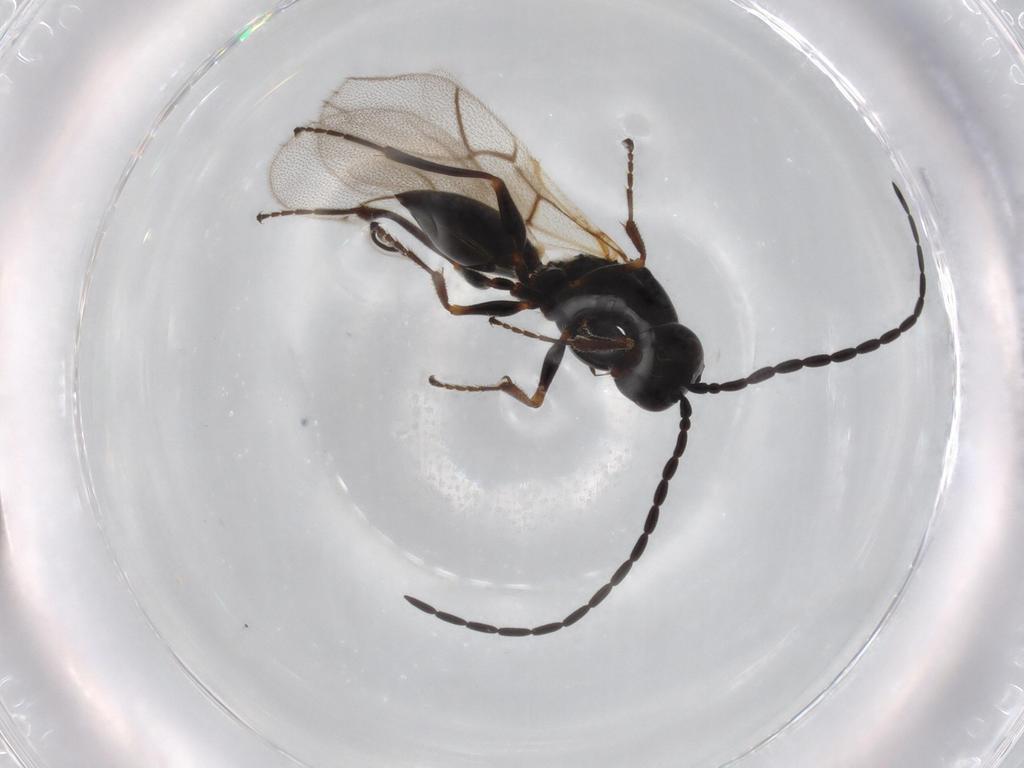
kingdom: Animalia
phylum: Arthropoda
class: Insecta
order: Hymenoptera
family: Figitidae
